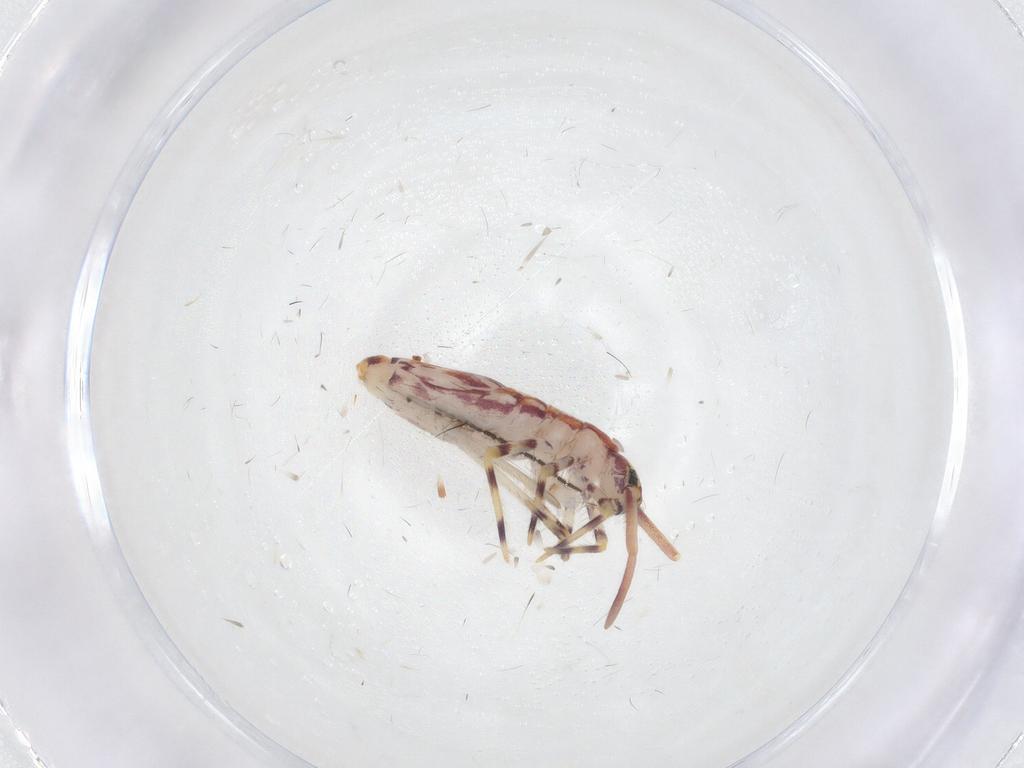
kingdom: Animalia
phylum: Arthropoda
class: Collembola
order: Entomobryomorpha
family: Entomobryidae
